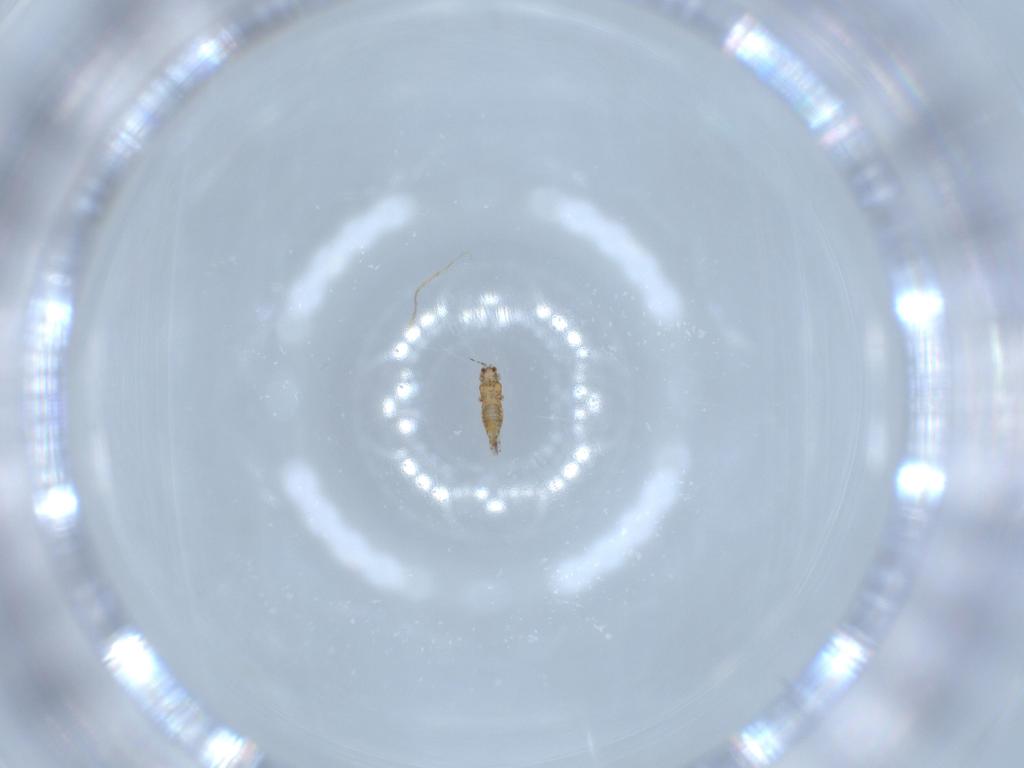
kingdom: Animalia
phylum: Arthropoda
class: Insecta
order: Thysanoptera
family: Thripidae
